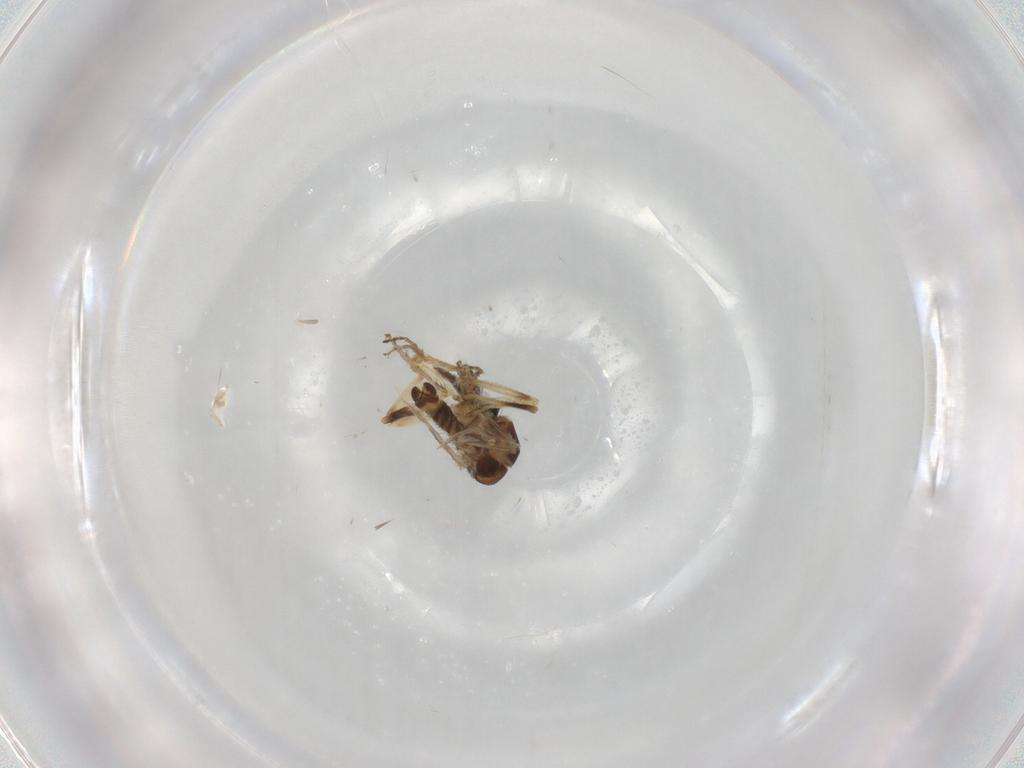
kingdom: Animalia
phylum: Arthropoda
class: Insecta
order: Diptera
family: Ceratopogonidae
